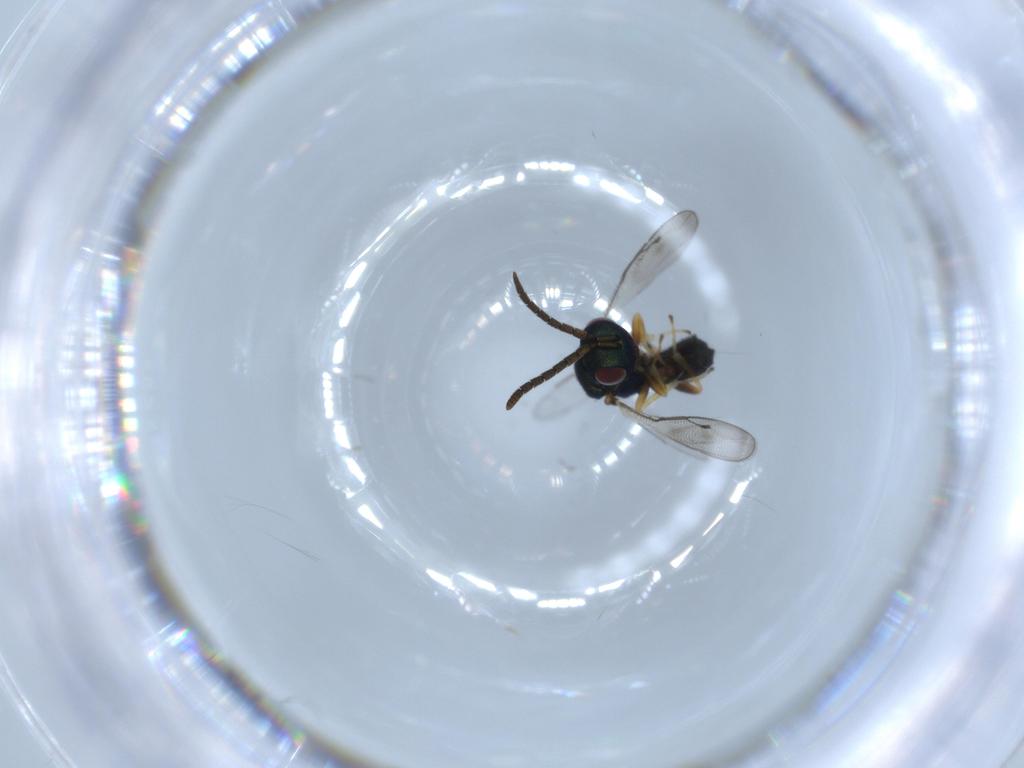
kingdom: Animalia
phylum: Arthropoda
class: Insecta
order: Hymenoptera
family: Pteromalidae
